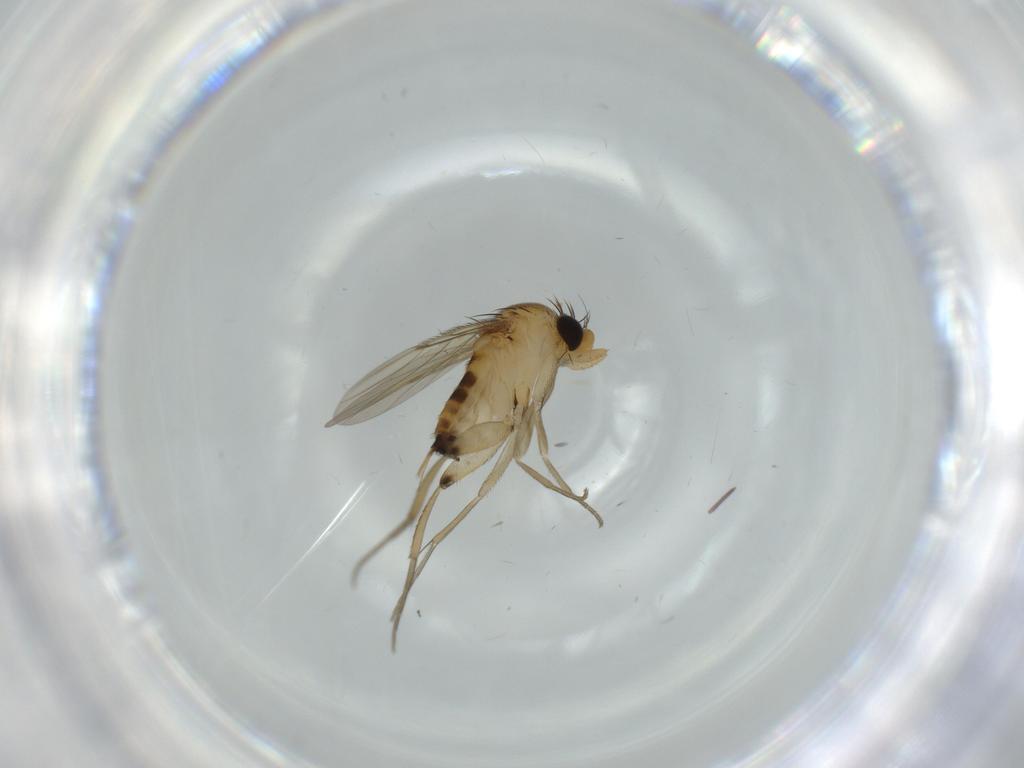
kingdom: Animalia
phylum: Arthropoda
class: Insecta
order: Diptera
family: Phoridae
